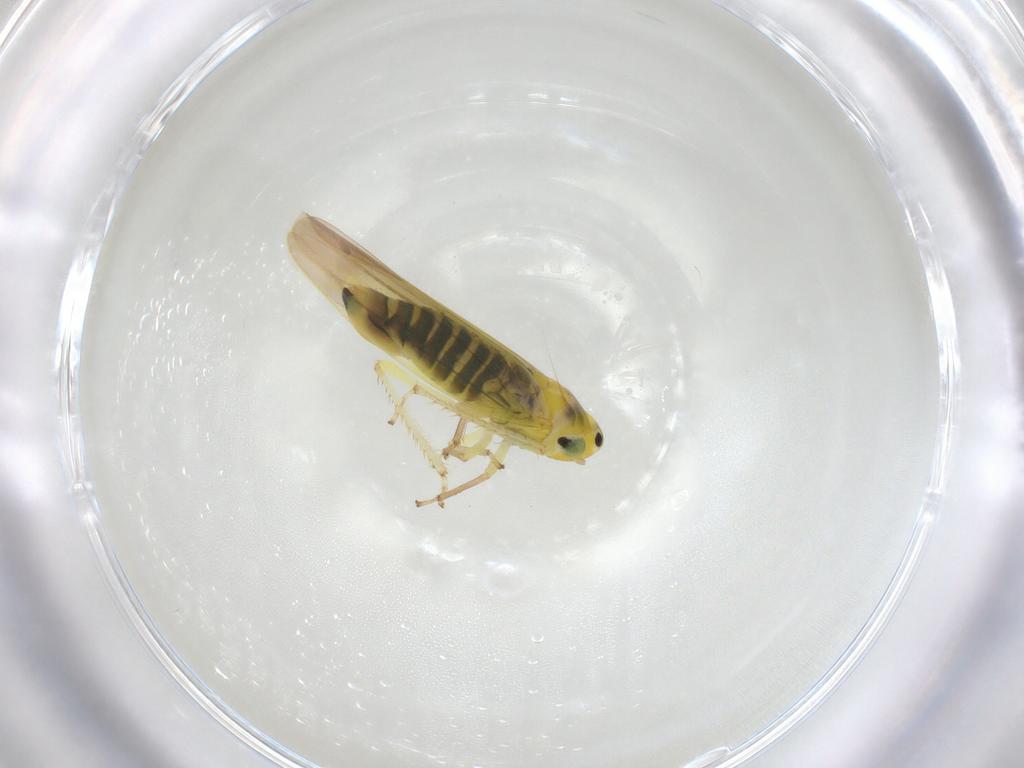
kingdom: Animalia
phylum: Arthropoda
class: Insecta
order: Hemiptera
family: Cicadellidae
